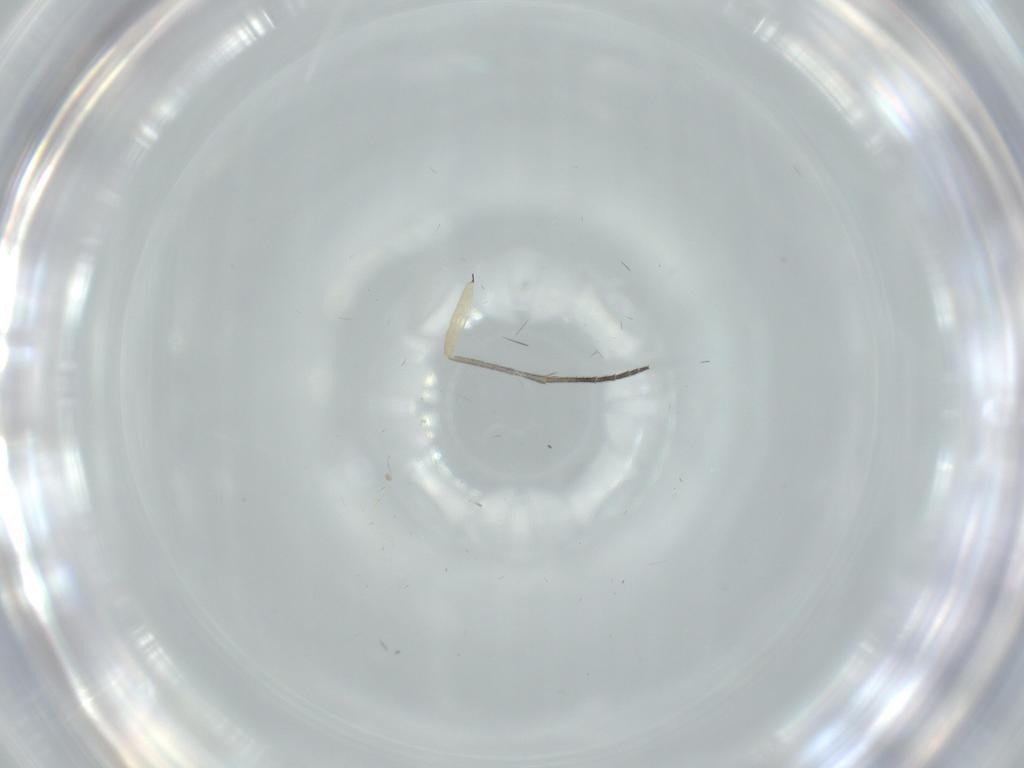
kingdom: Animalia
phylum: Arthropoda
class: Insecta
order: Diptera
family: Sciaridae
